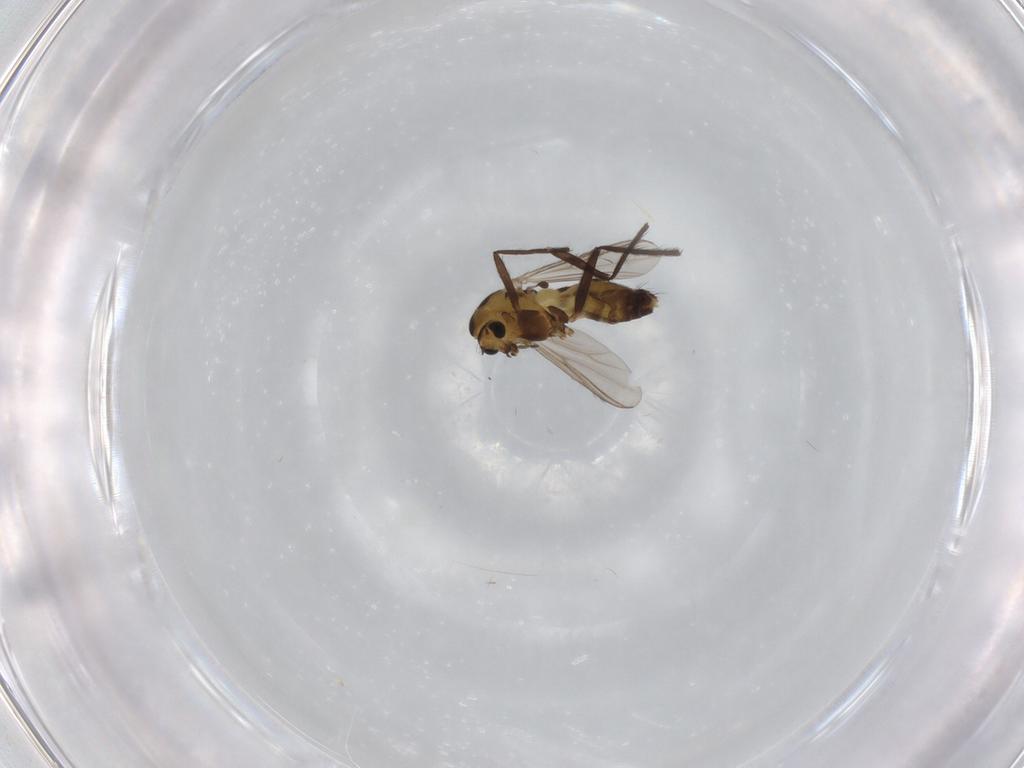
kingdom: Animalia
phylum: Arthropoda
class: Insecta
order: Diptera
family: Chironomidae
